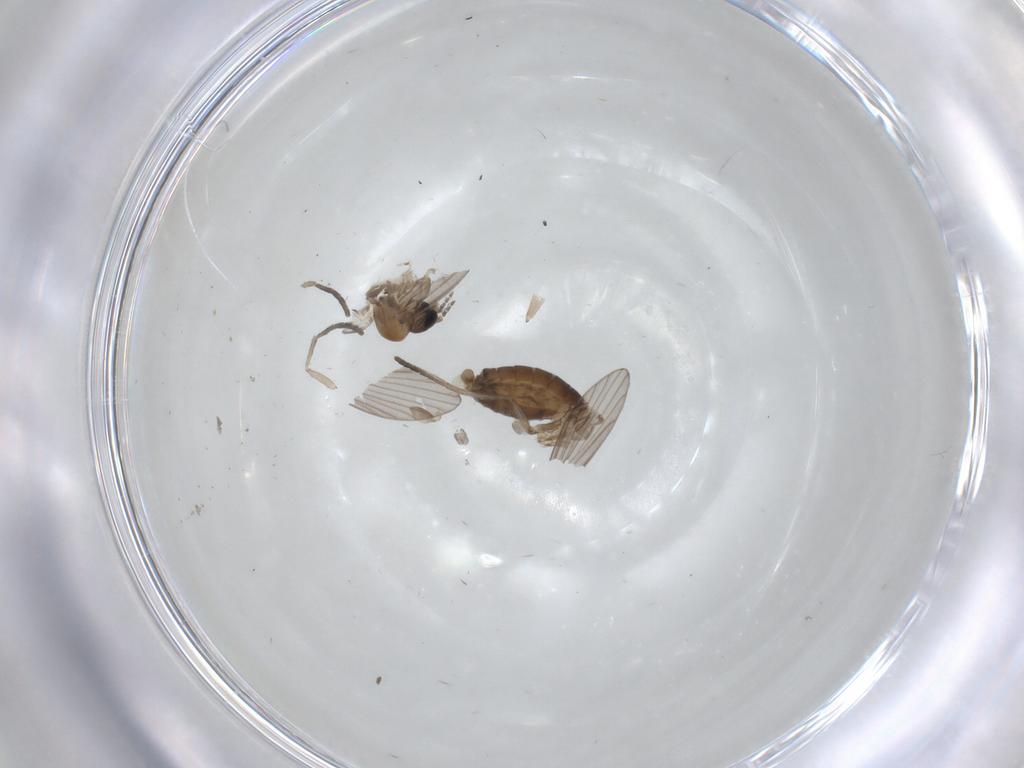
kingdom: Animalia
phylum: Arthropoda
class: Insecta
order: Diptera
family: Psychodidae
